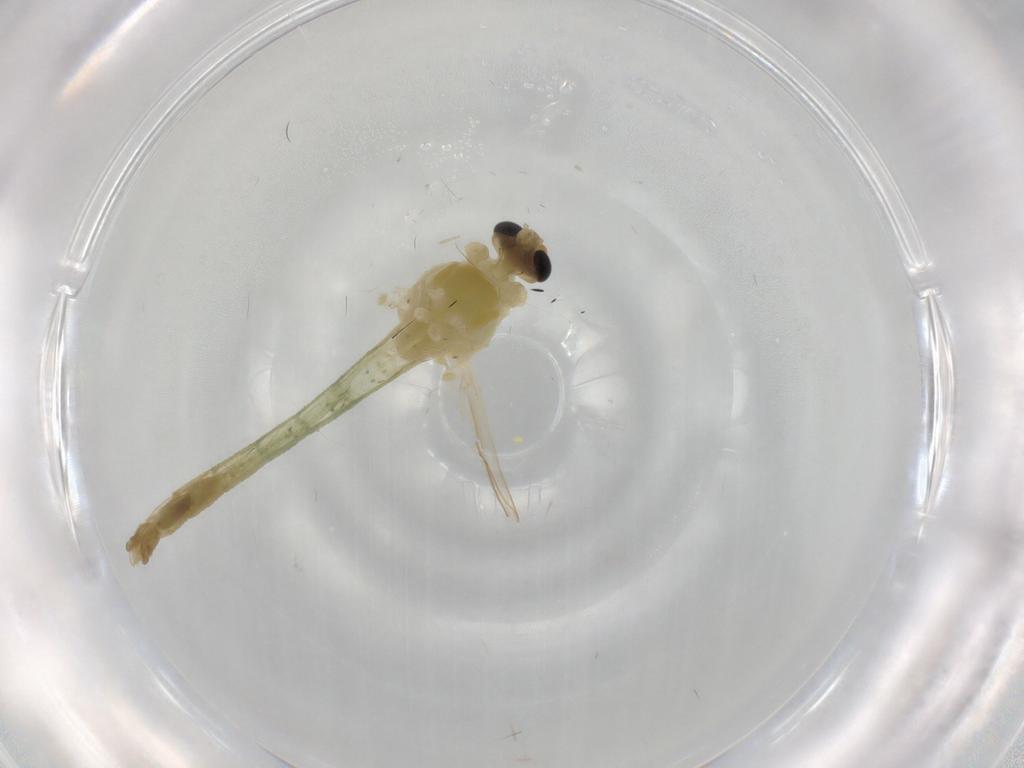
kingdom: Animalia
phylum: Arthropoda
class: Insecta
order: Diptera
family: Chironomidae
